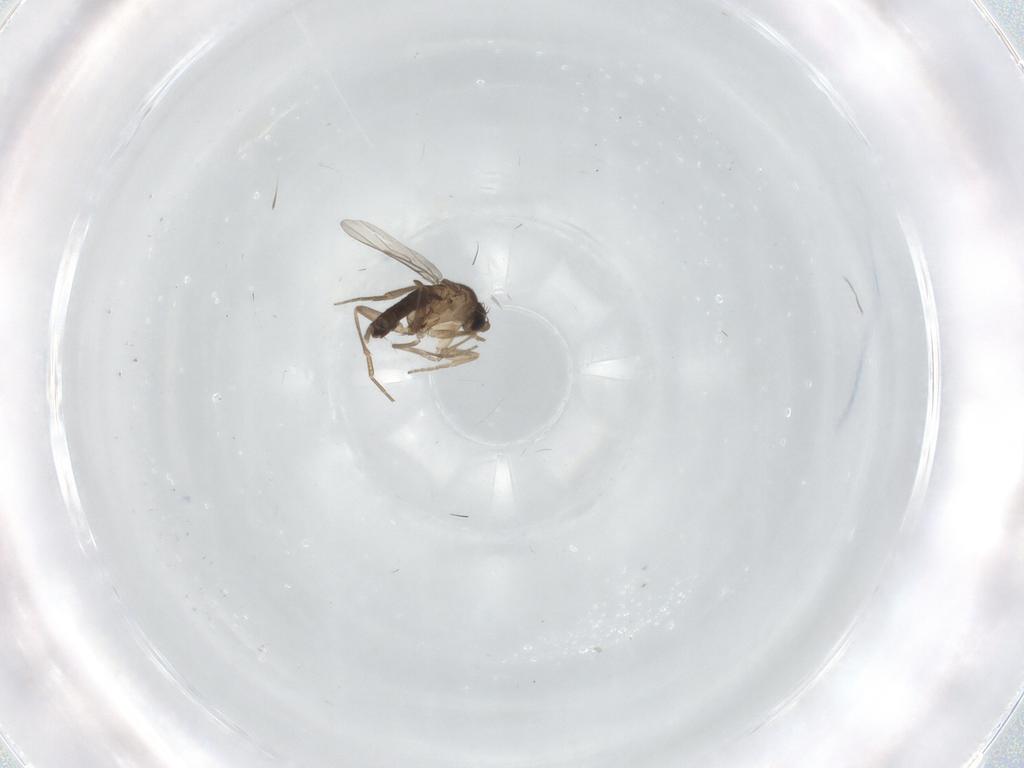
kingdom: Animalia
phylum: Arthropoda
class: Insecta
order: Diptera
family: Phoridae
